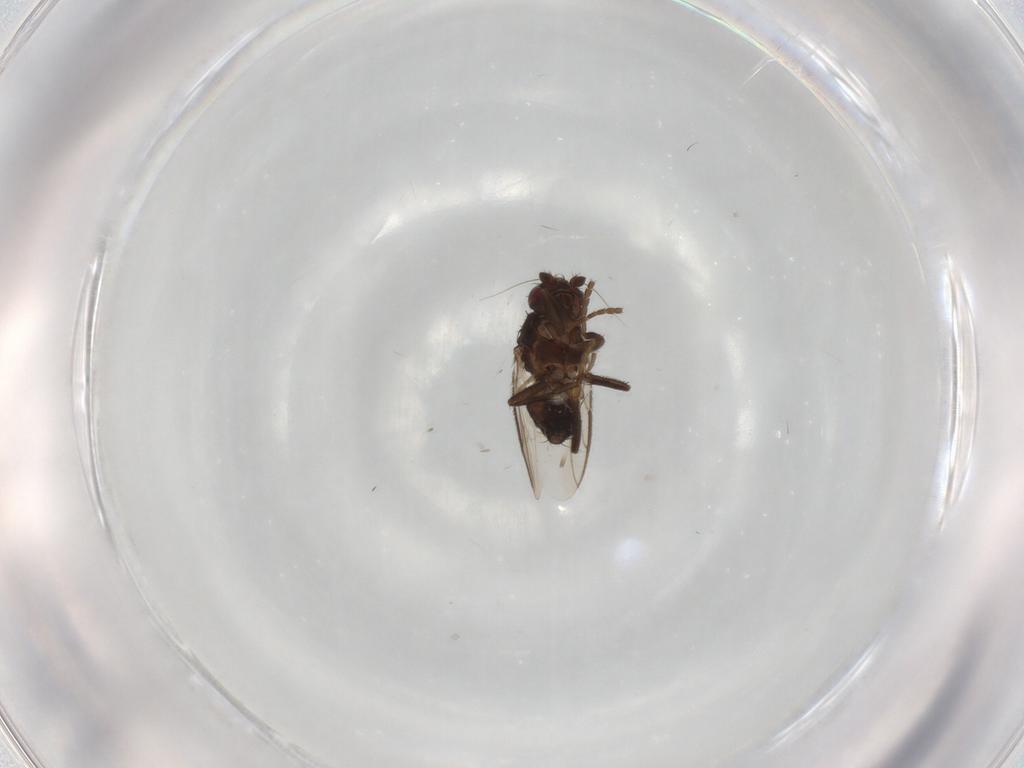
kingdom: Animalia
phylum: Arthropoda
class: Insecta
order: Diptera
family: Sphaeroceridae
